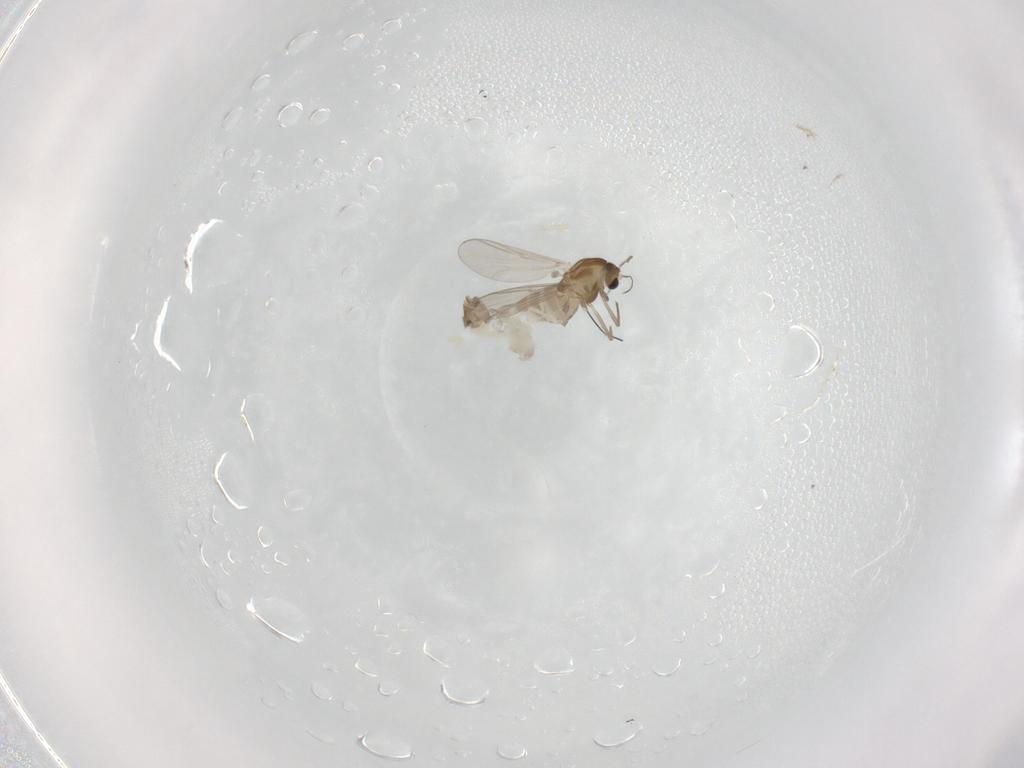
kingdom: Animalia
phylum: Arthropoda
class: Insecta
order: Diptera
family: Chironomidae
